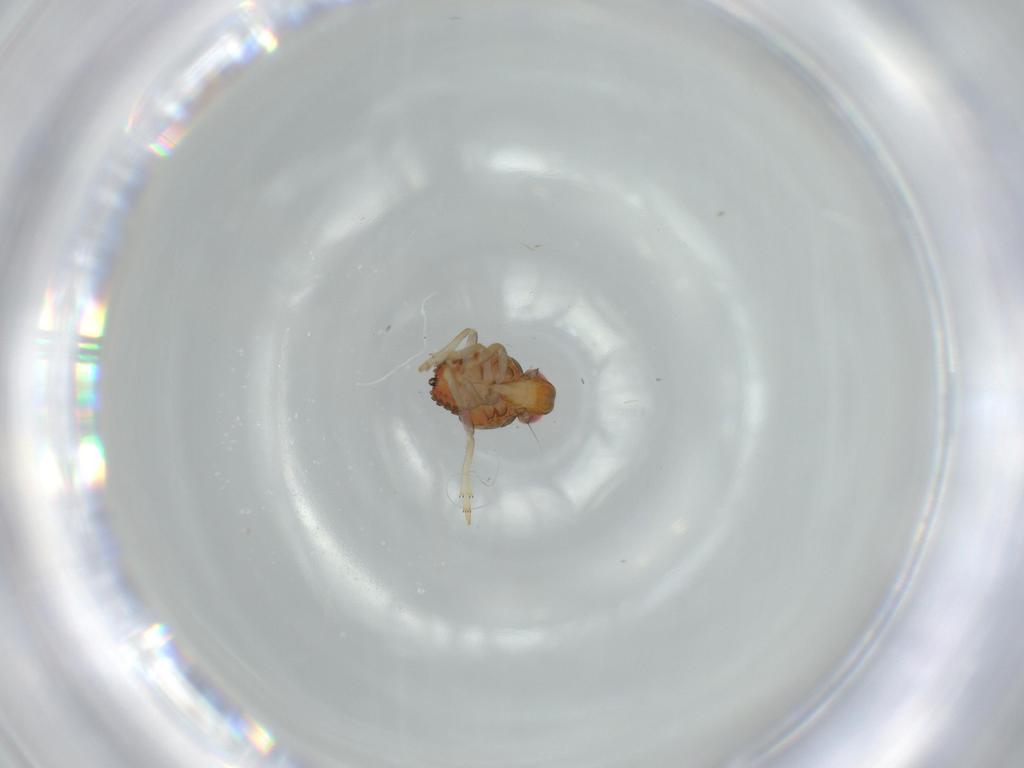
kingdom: Animalia
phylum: Arthropoda
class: Insecta
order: Hemiptera
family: Issidae
